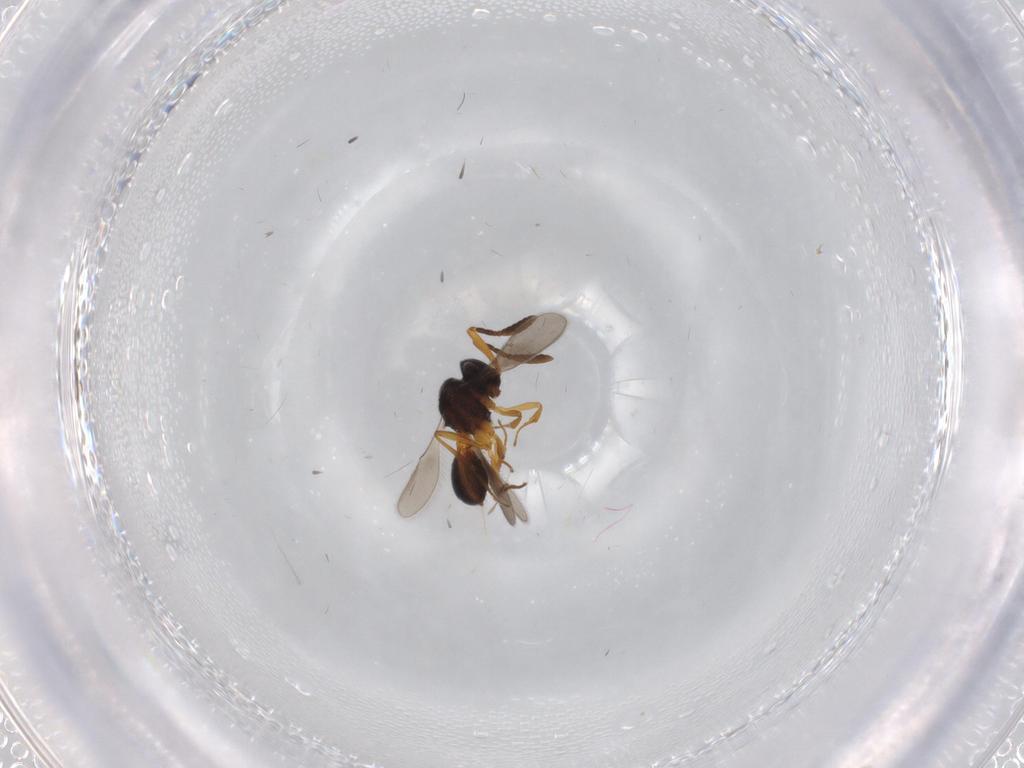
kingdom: Animalia
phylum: Arthropoda
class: Insecta
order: Hymenoptera
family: Scelionidae
